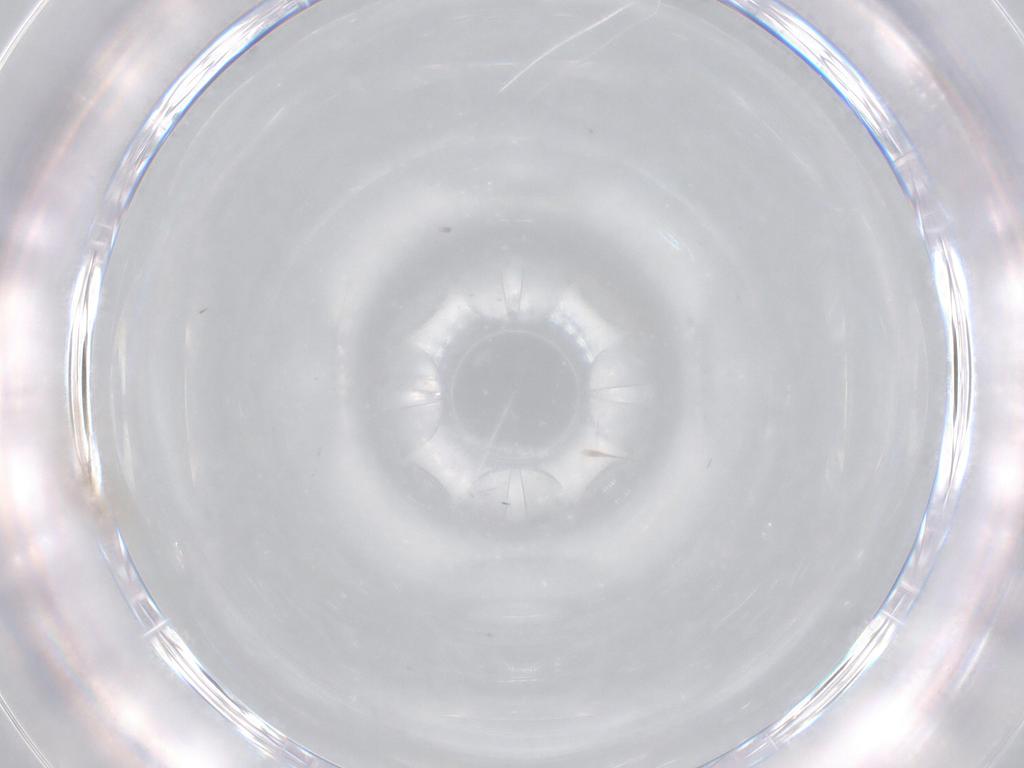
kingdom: Animalia
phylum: Arthropoda
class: Insecta
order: Diptera
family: Cecidomyiidae
